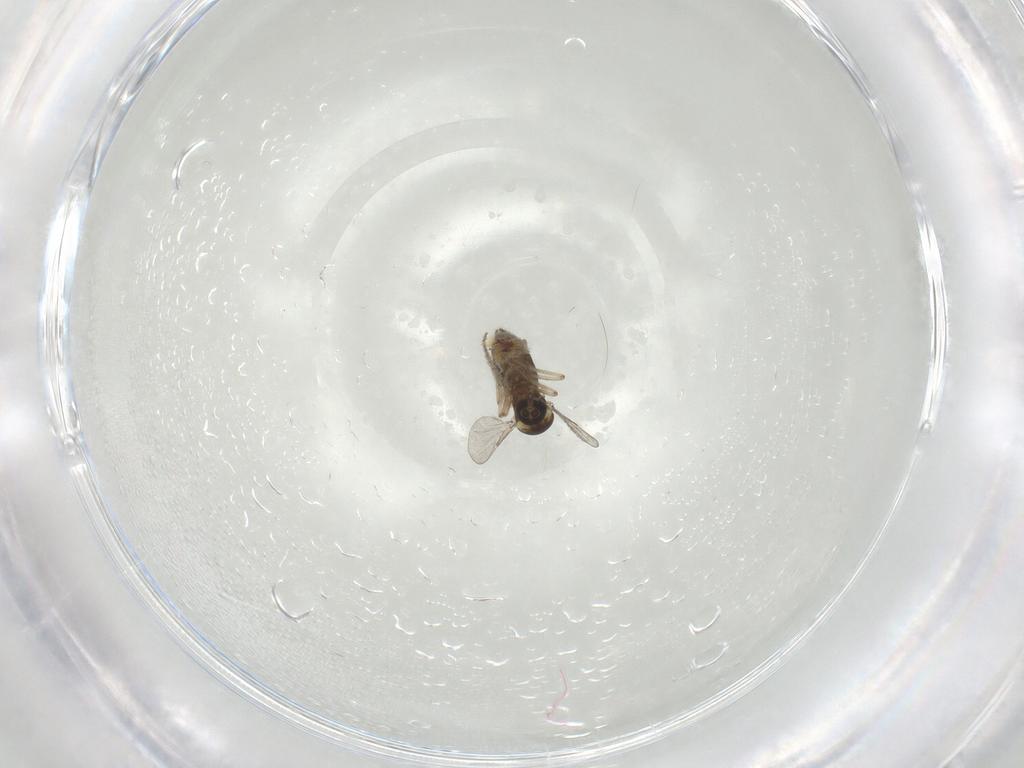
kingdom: Animalia
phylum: Arthropoda
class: Insecta
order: Diptera
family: Ceratopogonidae
